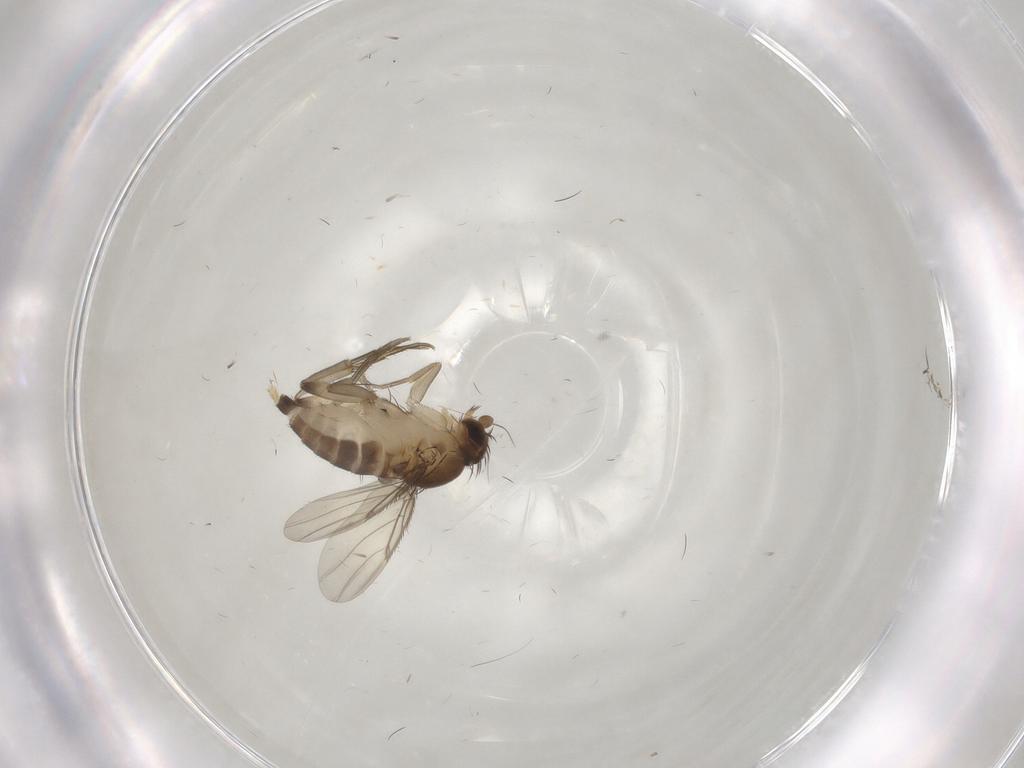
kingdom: Animalia
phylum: Arthropoda
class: Insecta
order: Diptera
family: Phoridae
